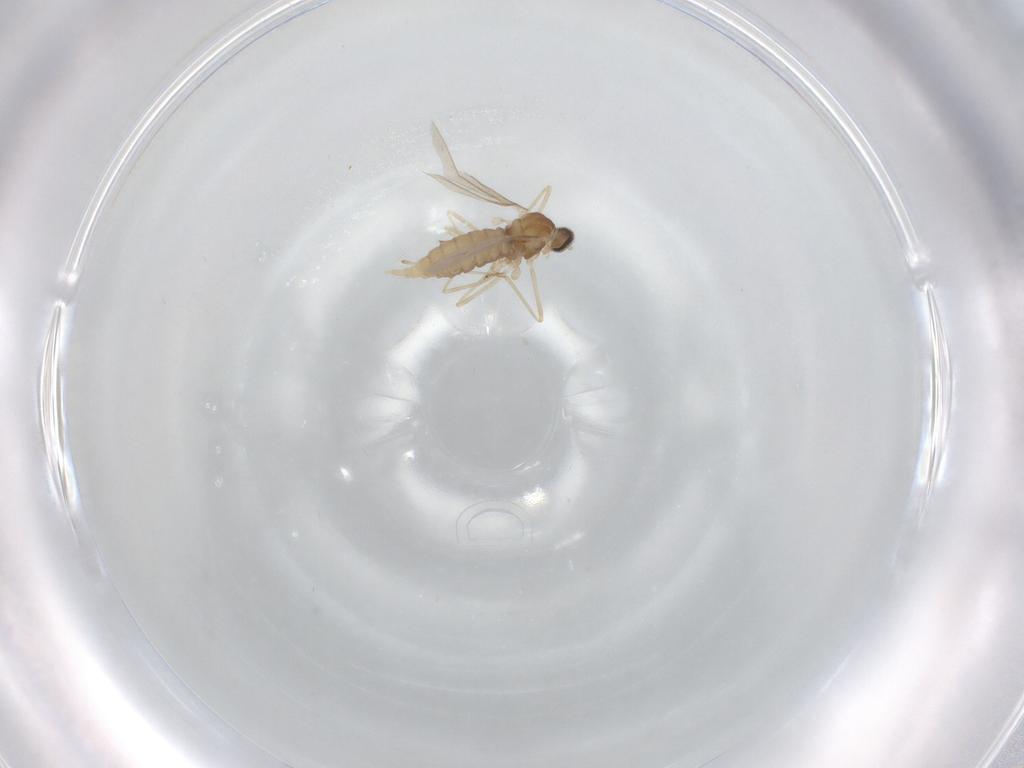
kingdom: Animalia
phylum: Arthropoda
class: Insecta
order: Diptera
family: Cecidomyiidae
